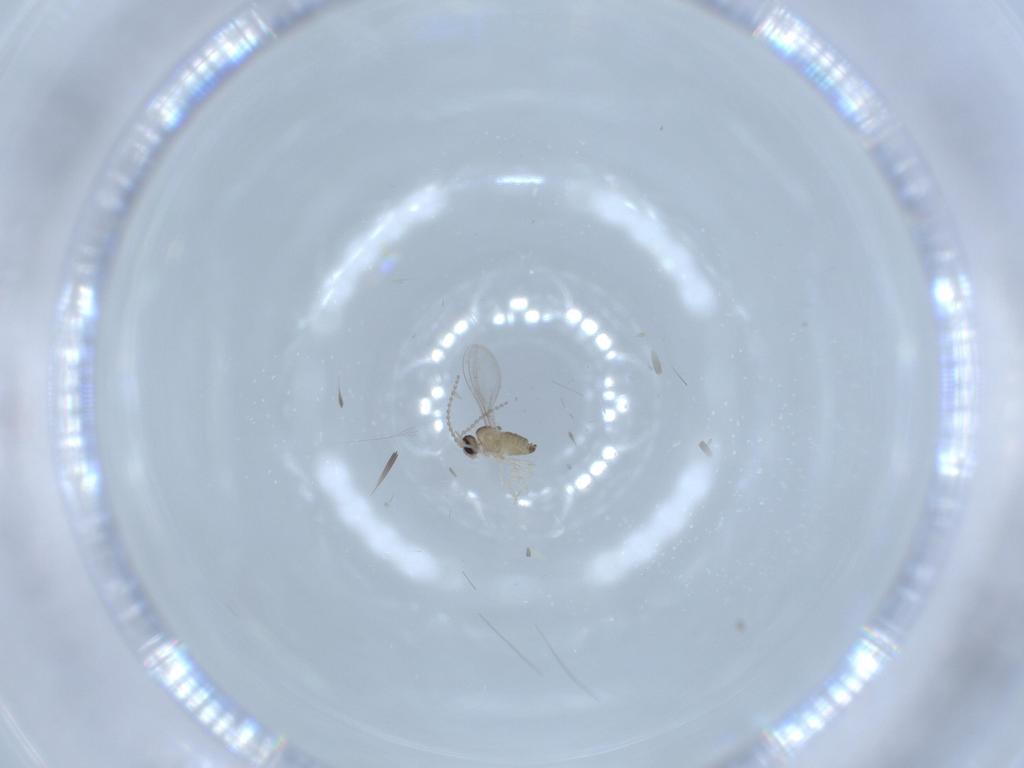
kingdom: Animalia
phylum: Arthropoda
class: Insecta
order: Diptera
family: Cecidomyiidae
